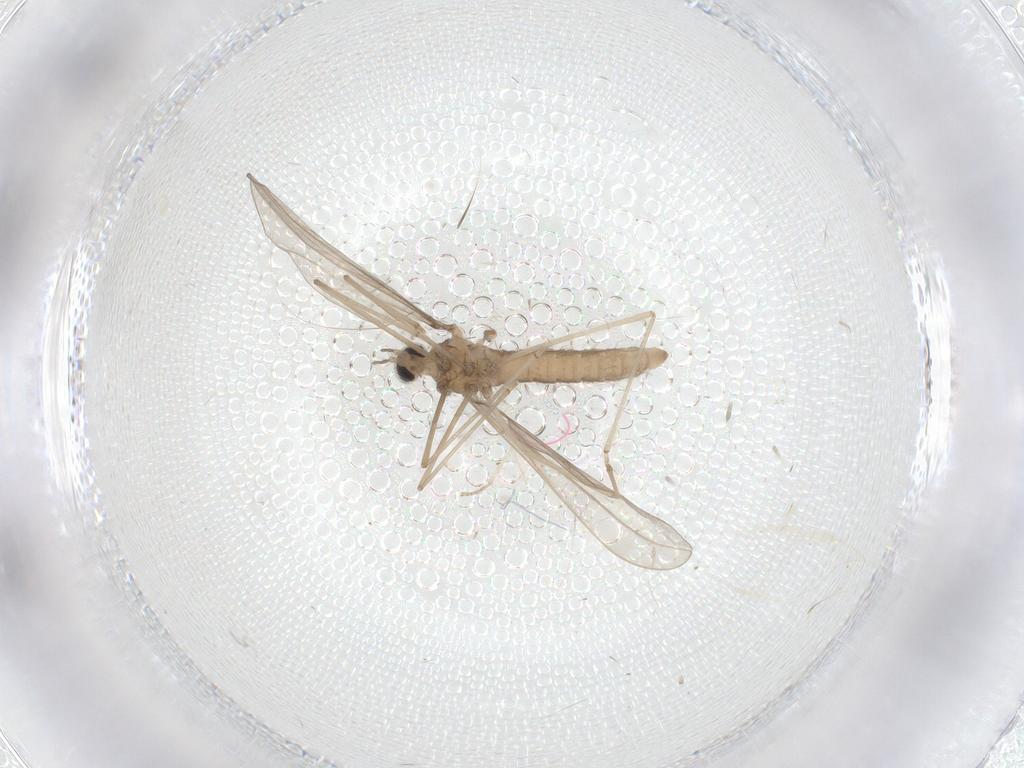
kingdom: Animalia
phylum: Arthropoda
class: Insecta
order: Diptera
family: Cecidomyiidae
